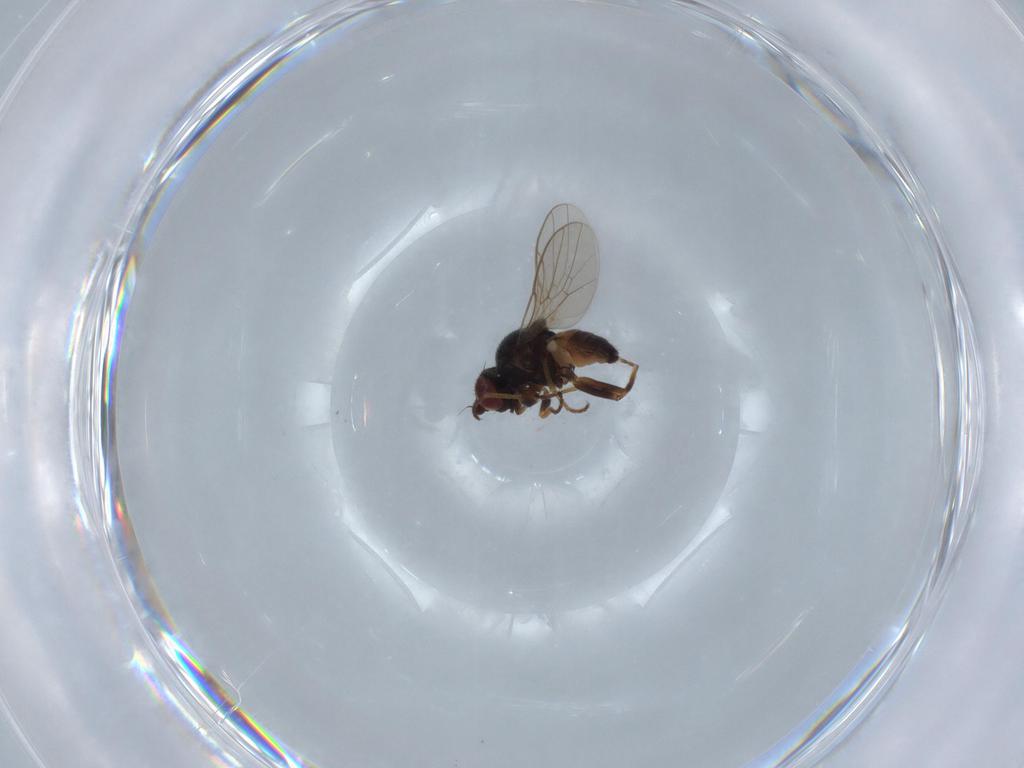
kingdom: Animalia
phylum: Arthropoda
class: Insecta
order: Diptera
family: Chloropidae
